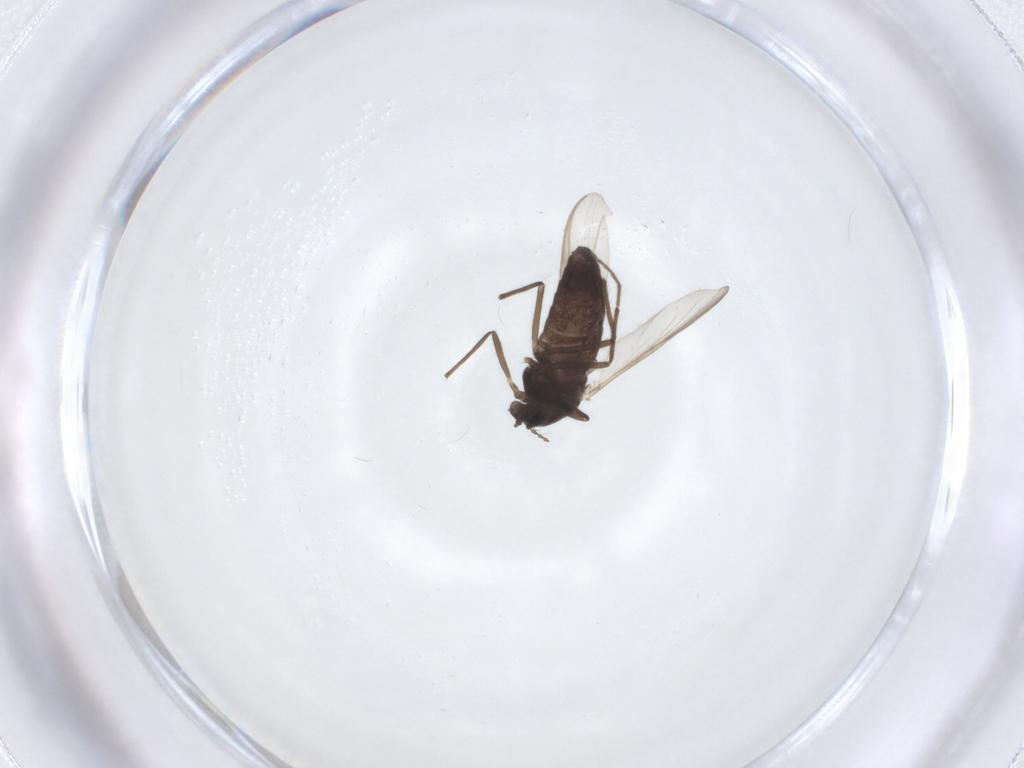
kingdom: Animalia
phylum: Arthropoda
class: Insecta
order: Diptera
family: Chironomidae
